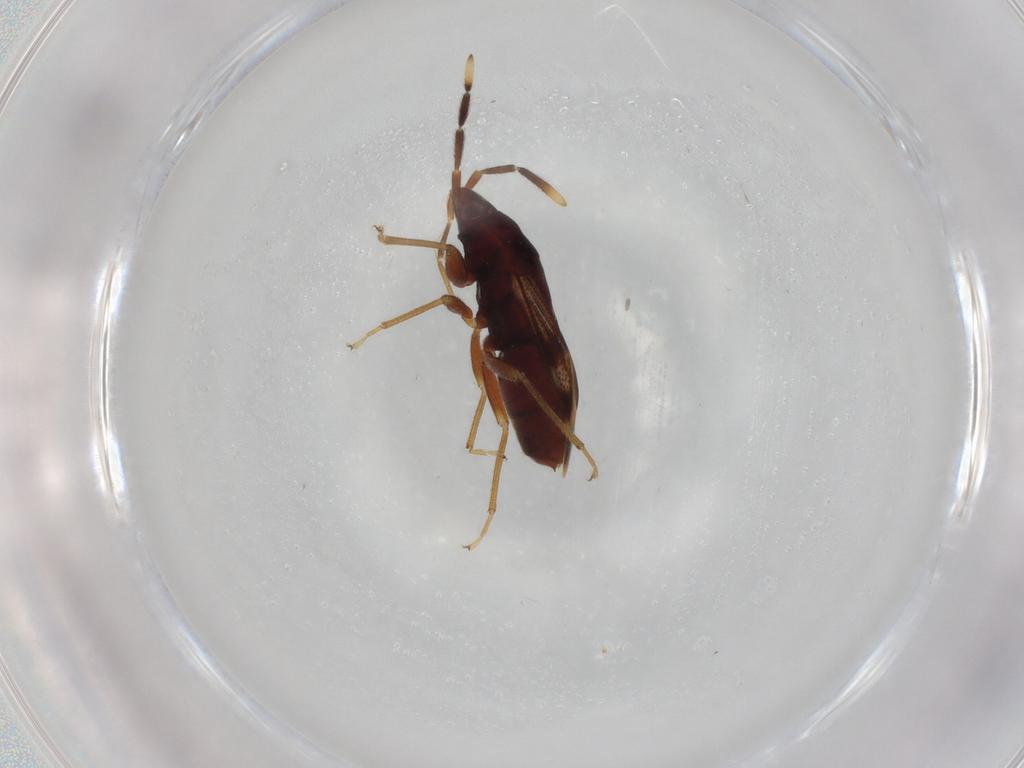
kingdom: Animalia
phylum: Arthropoda
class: Insecta
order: Hemiptera
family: Rhyparochromidae
